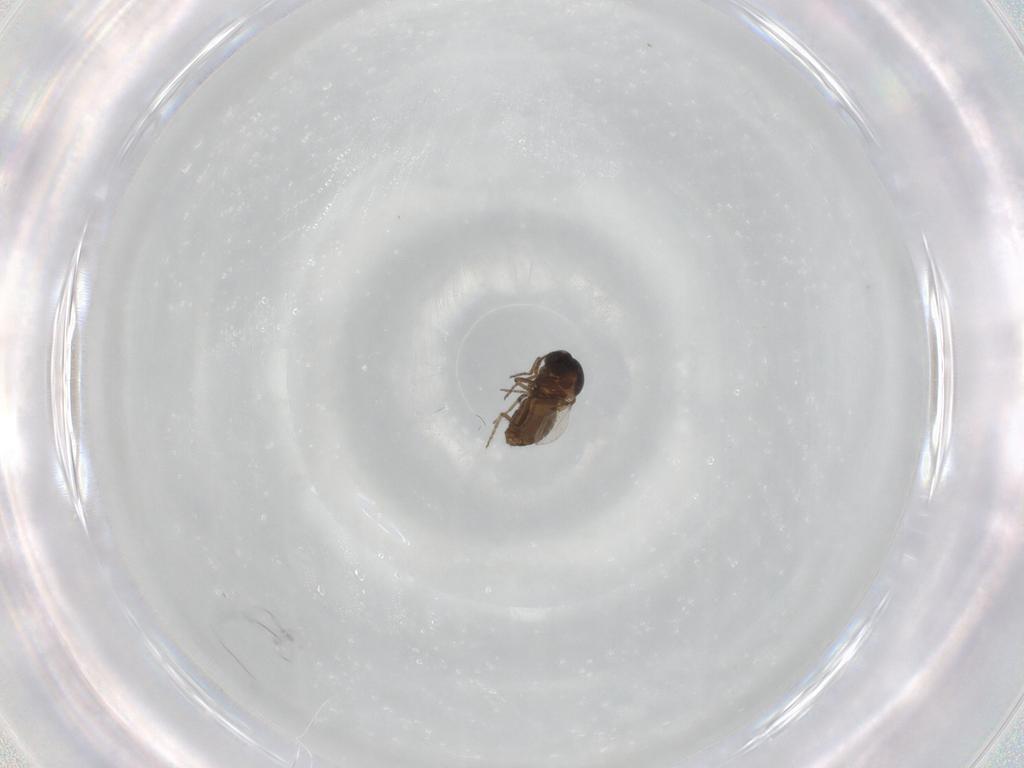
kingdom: Animalia
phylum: Arthropoda
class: Insecta
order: Diptera
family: Ceratopogonidae
